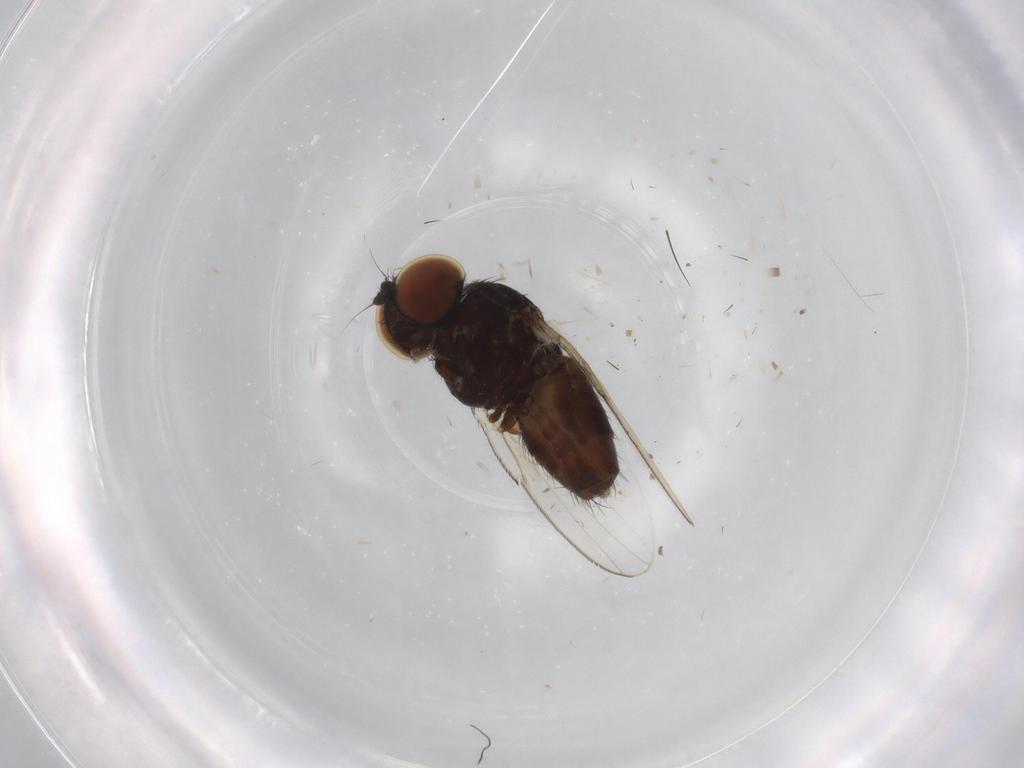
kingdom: Animalia
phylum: Arthropoda
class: Insecta
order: Diptera
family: Milichiidae
